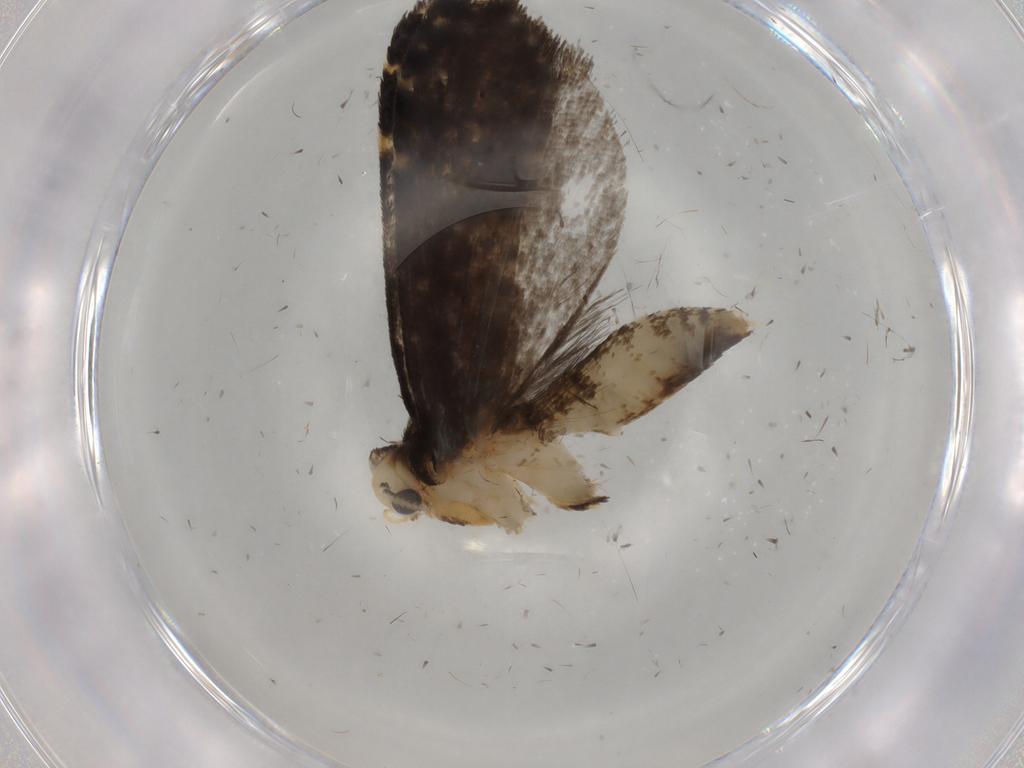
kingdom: Animalia
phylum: Arthropoda
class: Insecta
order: Lepidoptera
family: Tineidae
